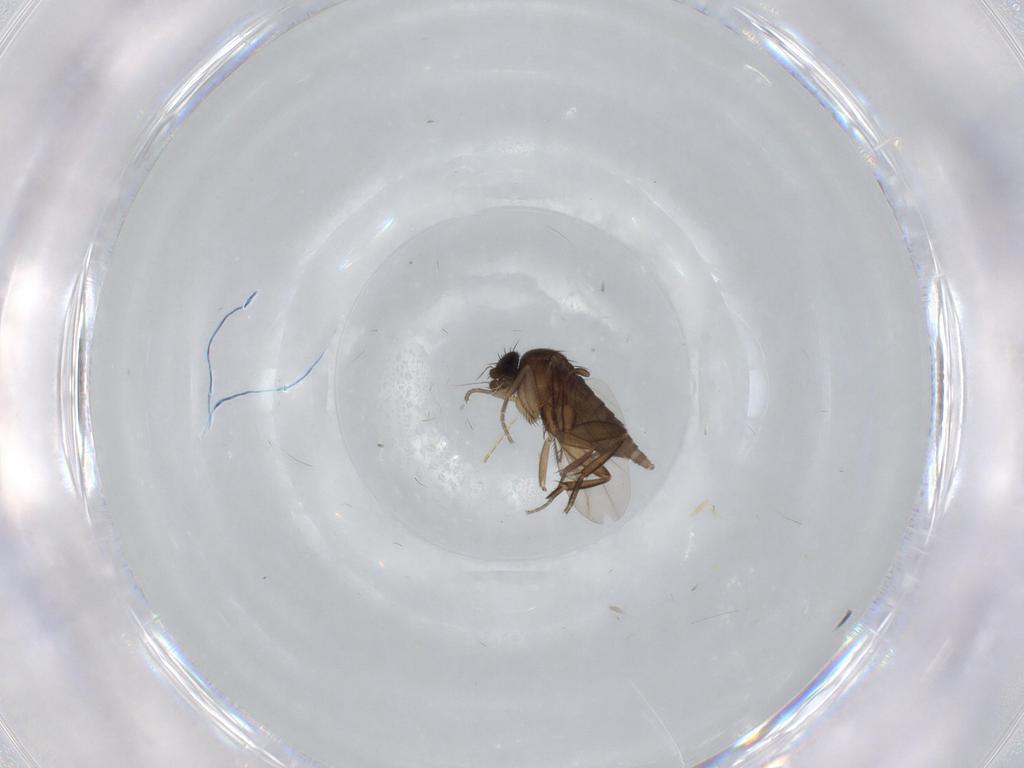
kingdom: Animalia
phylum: Arthropoda
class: Insecta
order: Diptera
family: Phoridae
